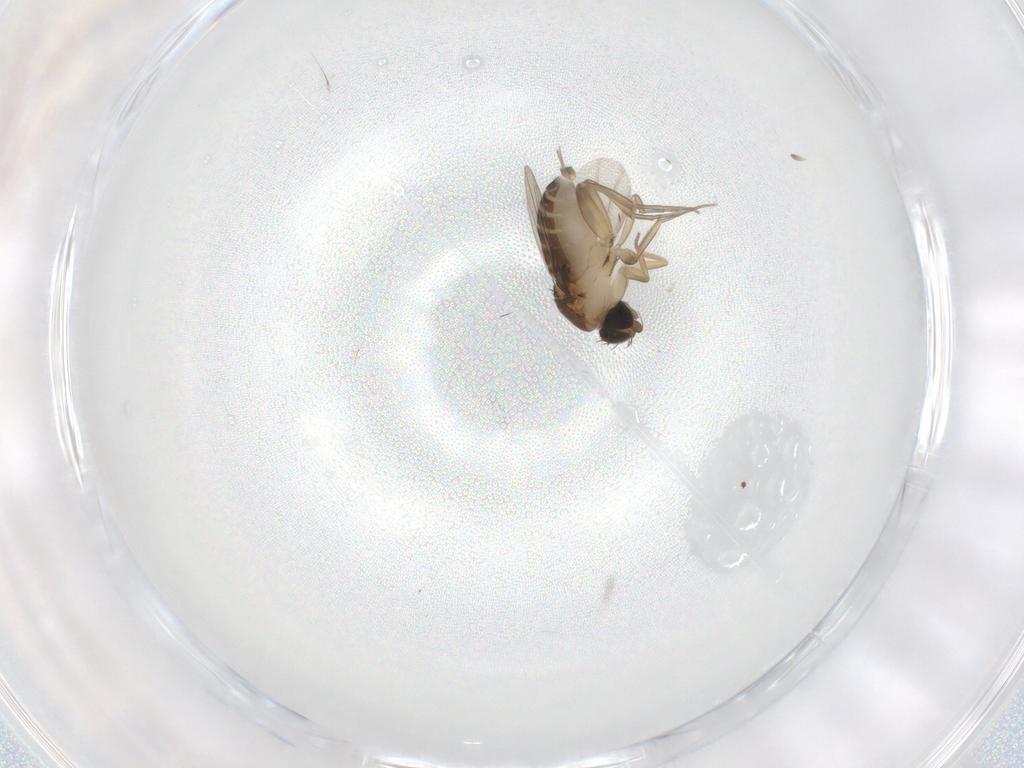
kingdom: Animalia
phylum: Arthropoda
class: Insecta
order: Diptera
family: Phoridae
